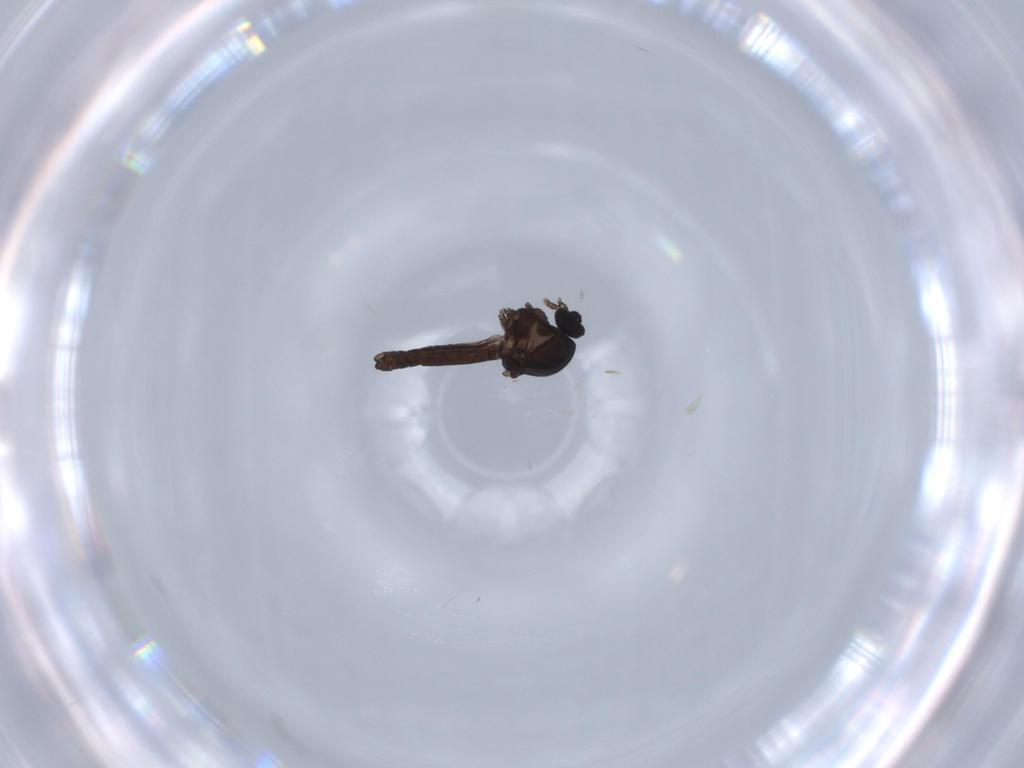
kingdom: Animalia
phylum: Arthropoda
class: Insecta
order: Diptera
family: Ceratopogonidae
